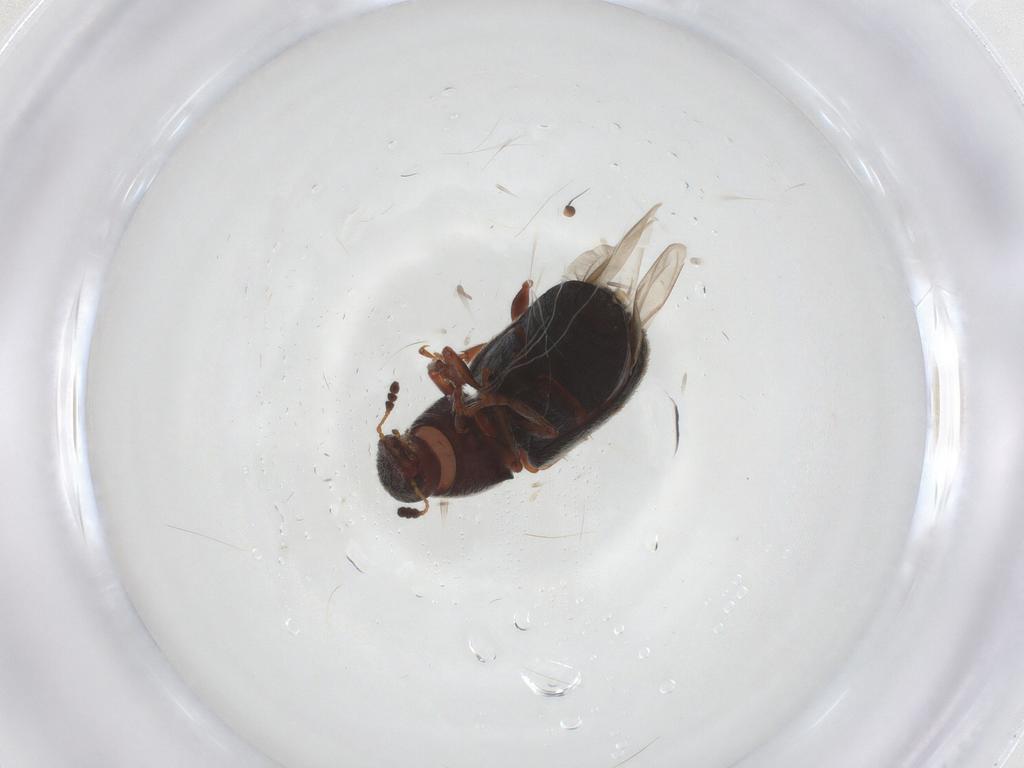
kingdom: Animalia
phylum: Arthropoda
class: Insecta
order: Coleoptera
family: Anthribidae
